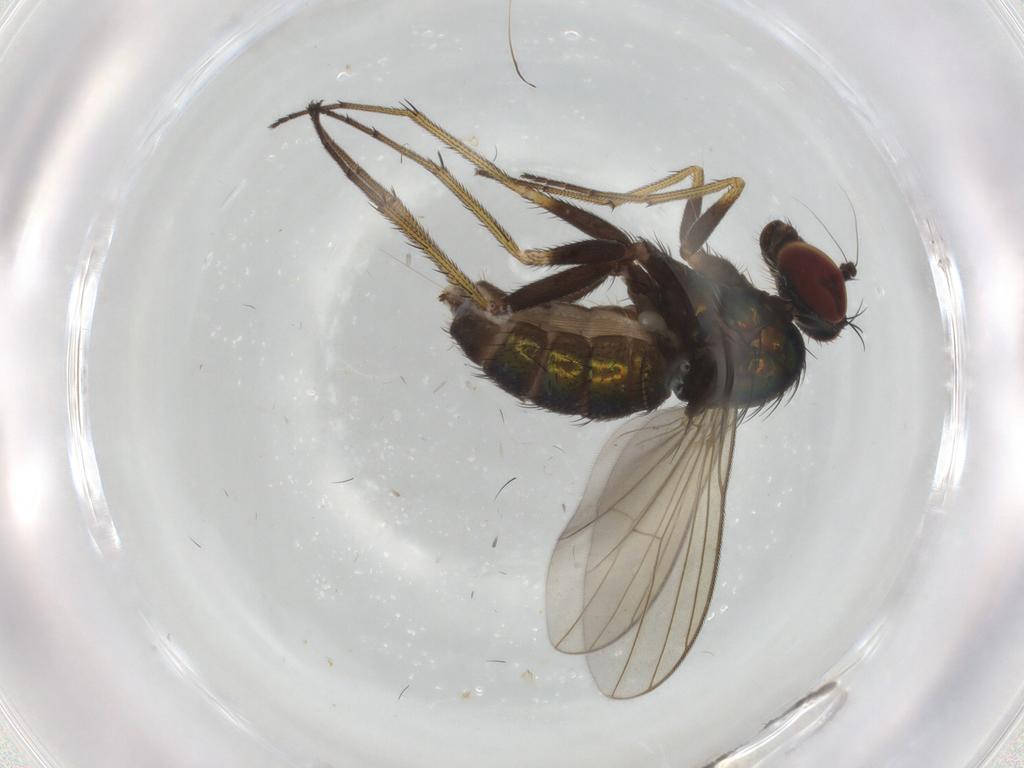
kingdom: Animalia
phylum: Arthropoda
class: Insecta
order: Diptera
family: Dolichopodidae
